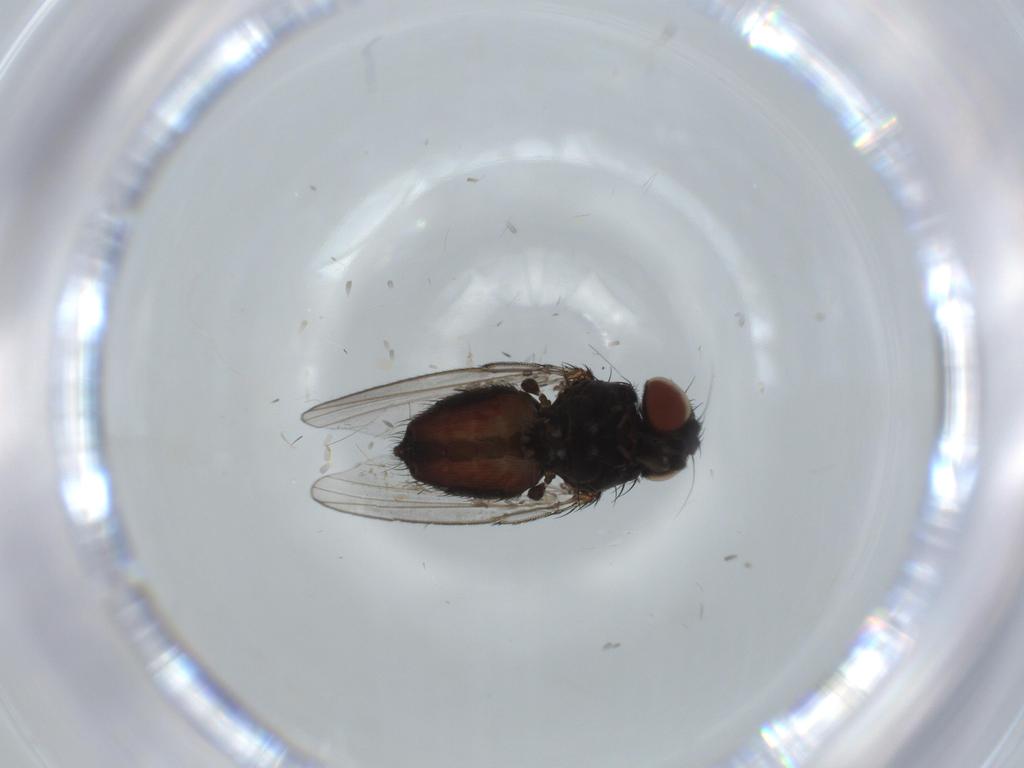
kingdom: Animalia
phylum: Arthropoda
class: Insecta
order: Diptera
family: Milichiidae
